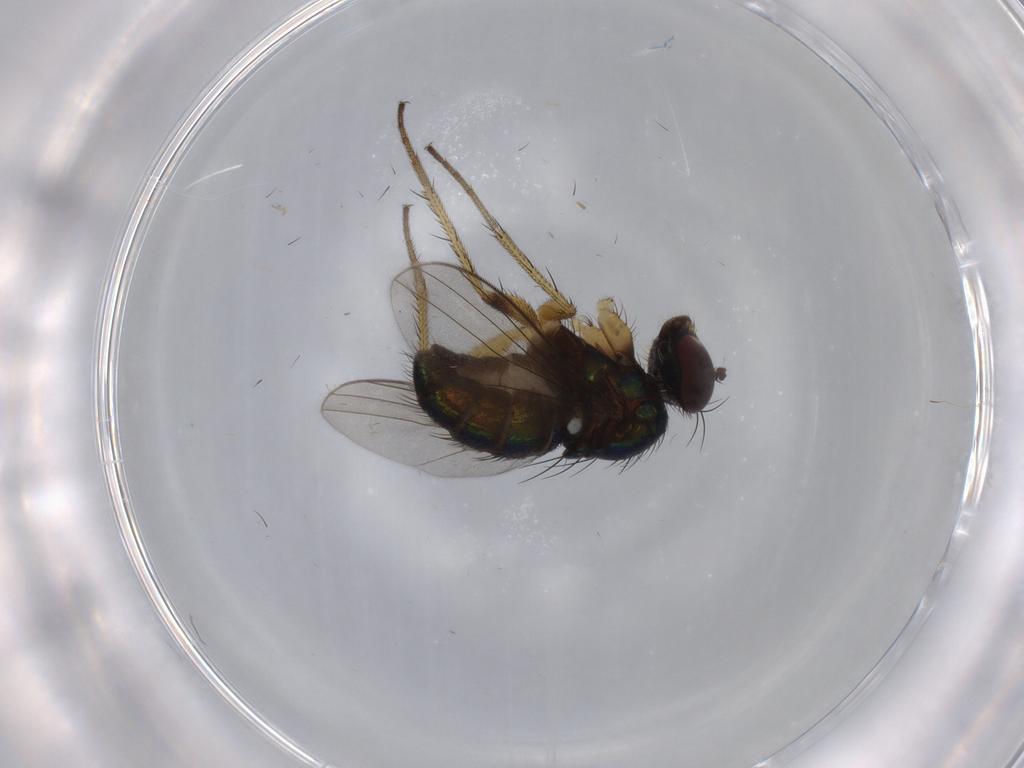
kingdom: Animalia
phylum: Arthropoda
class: Insecta
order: Diptera
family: Dolichopodidae
